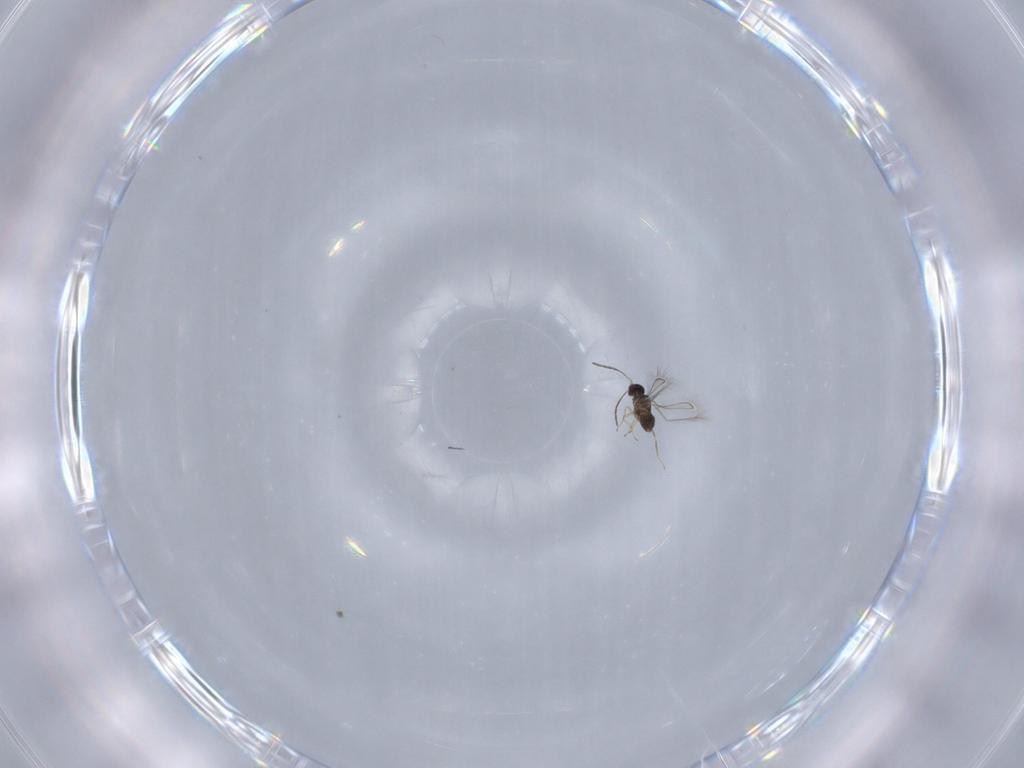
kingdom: Animalia
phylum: Arthropoda
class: Insecta
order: Hymenoptera
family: Mymaridae
